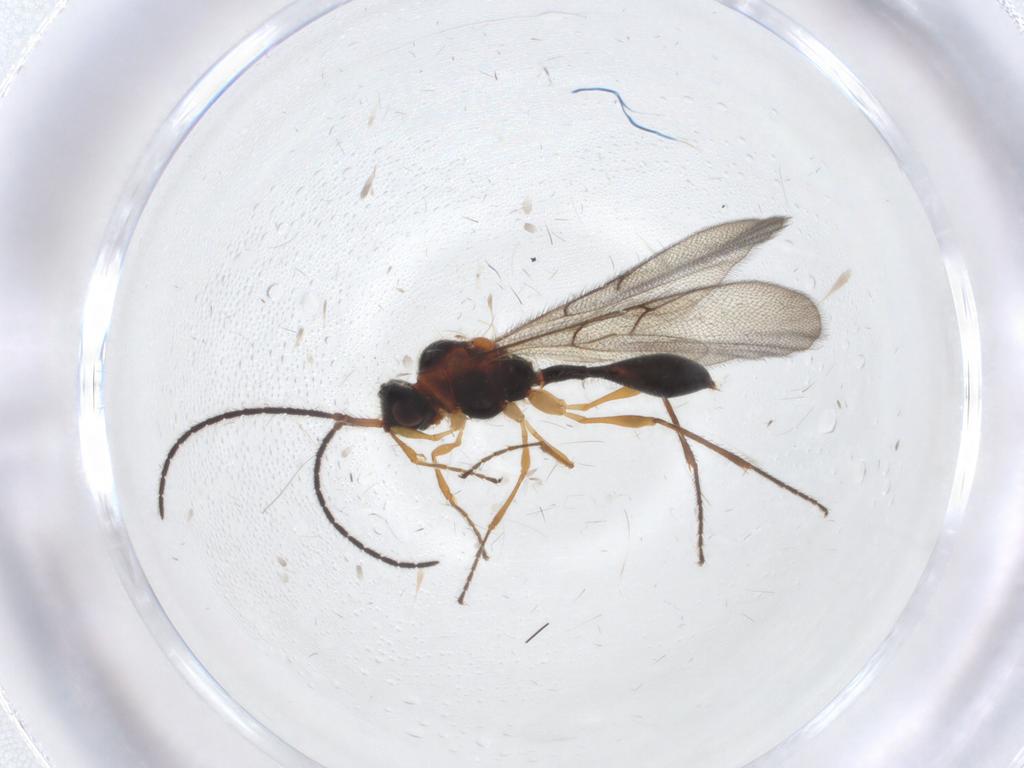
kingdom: Animalia
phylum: Arthropoda
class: Insecta
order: Hymenoptera
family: Diapriidae
